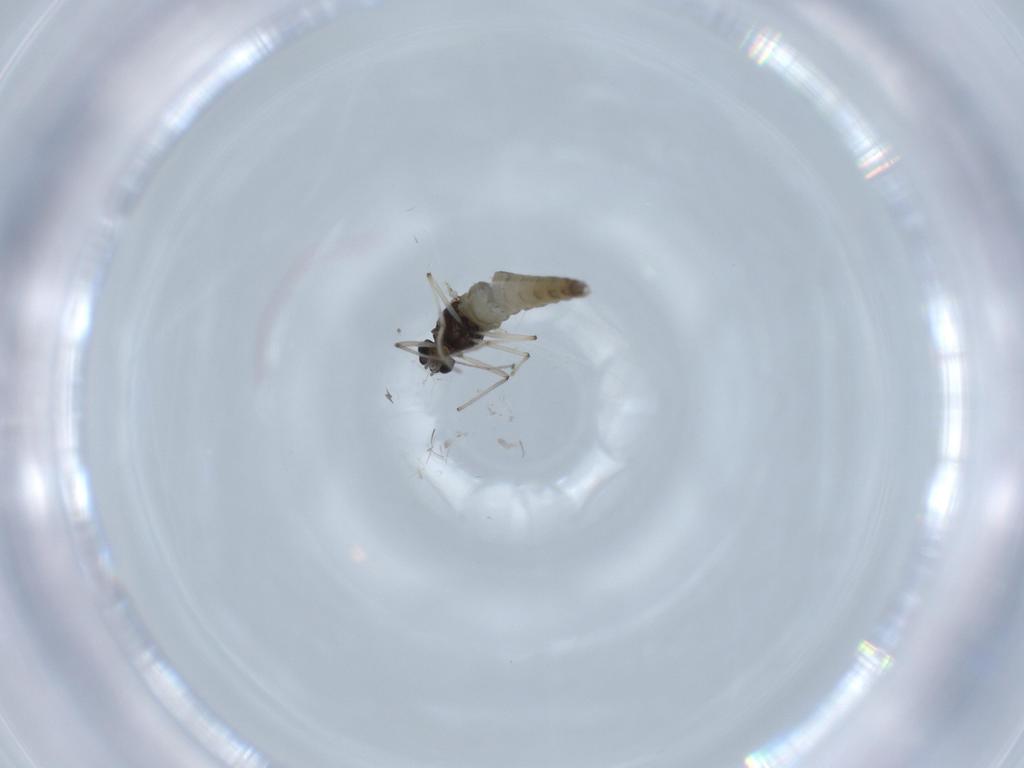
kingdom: Animalia
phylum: Arthropoda
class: Insecta
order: Diptera
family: Chironomidae
